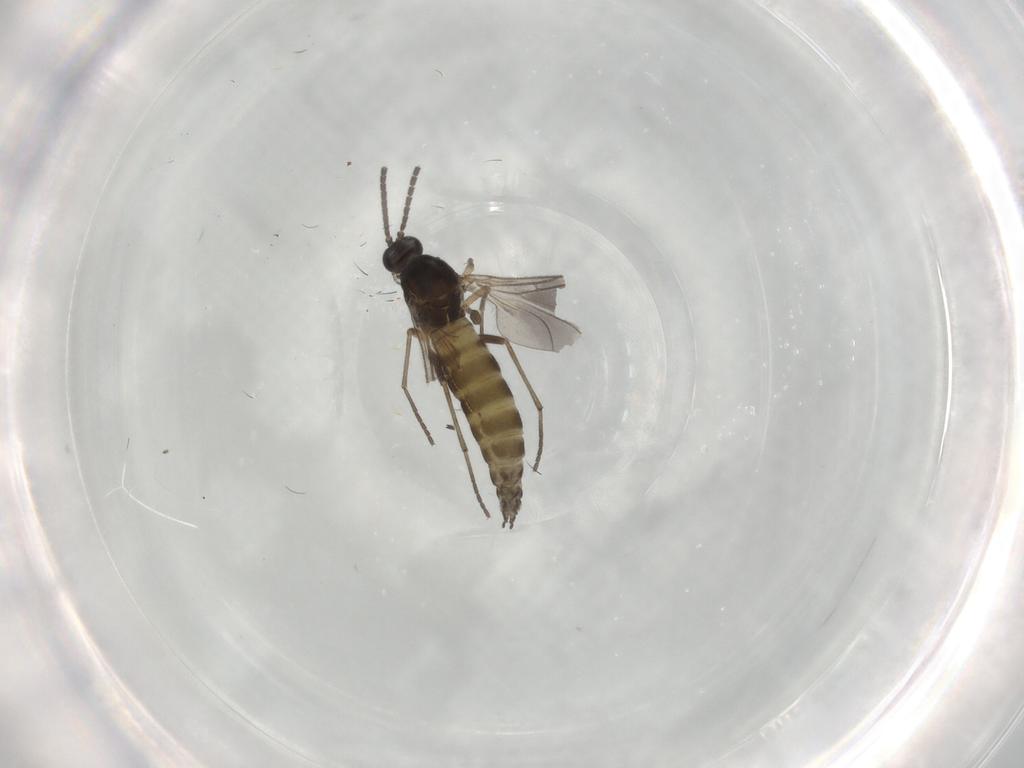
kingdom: Animalia
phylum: Arthropoda
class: Insecta
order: Diptera
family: Sciaridae
